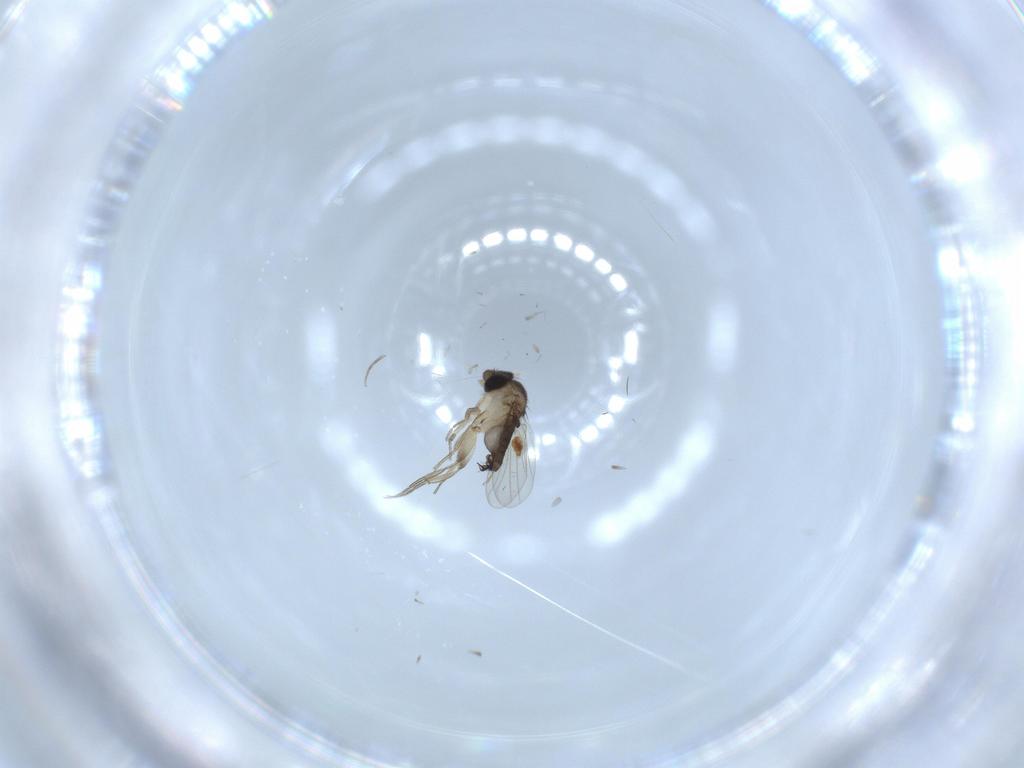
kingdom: Animalia
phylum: Arthropoda
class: Insecta
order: Diptera
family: Phoridae
